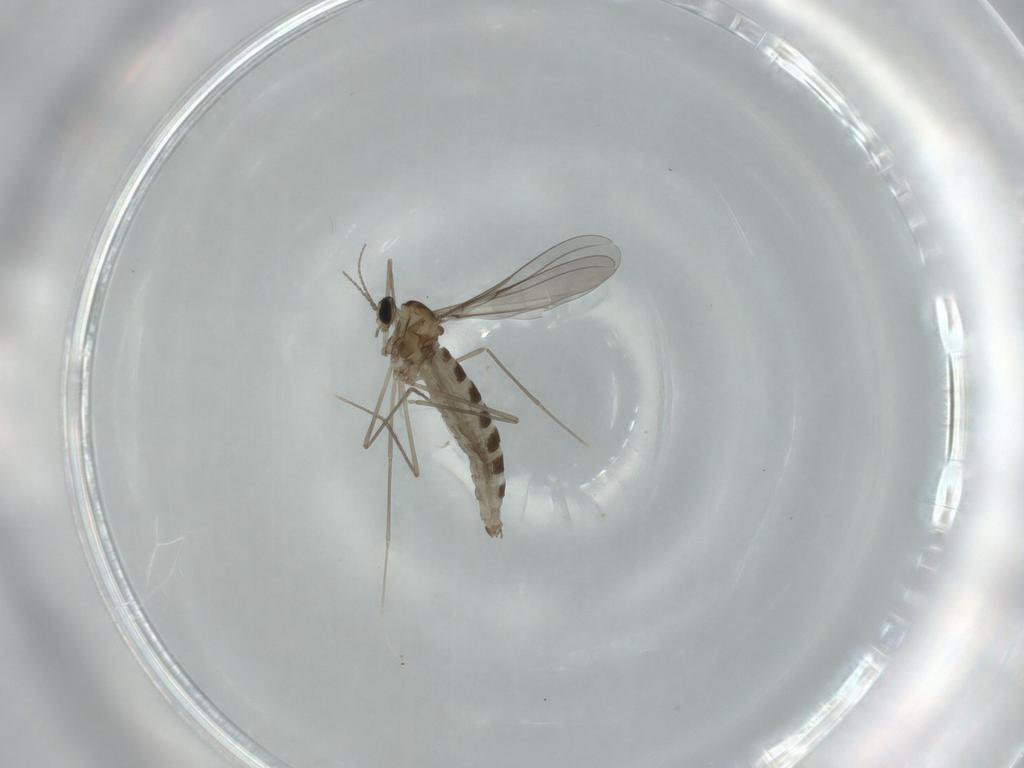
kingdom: Animalia
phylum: Arthropoda
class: Insecta
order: Diptera
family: Cecidomyiidae
